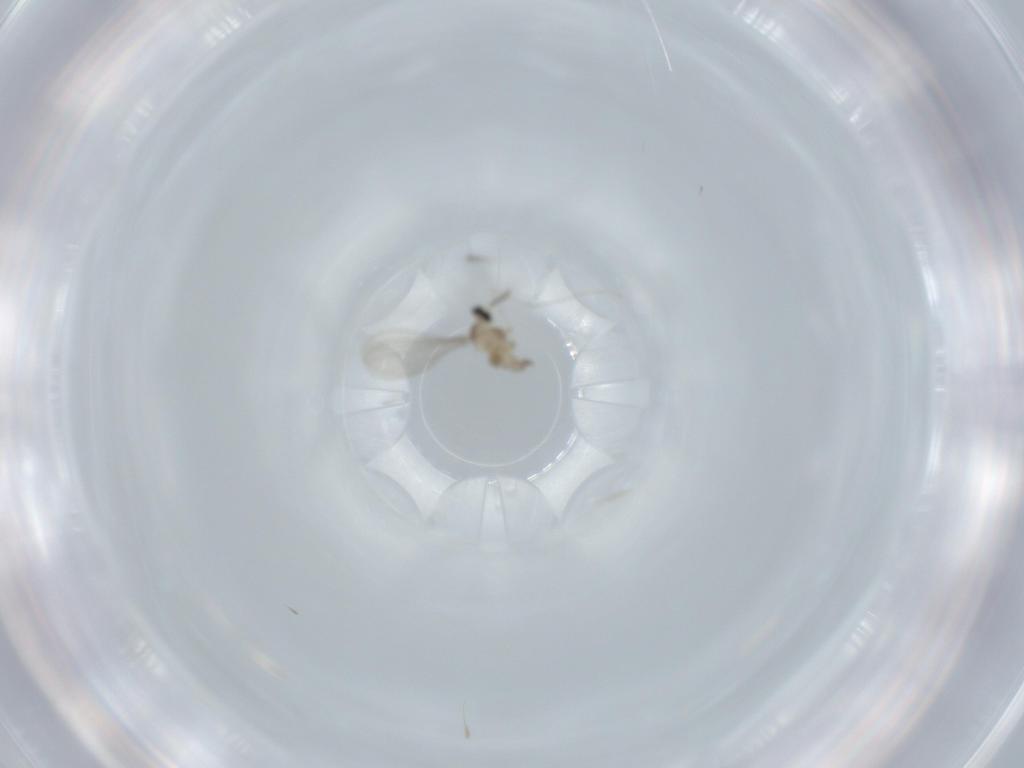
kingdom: Animalia
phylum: Arthropoda
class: Insecta
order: Diptera
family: Cecidomyiidae
